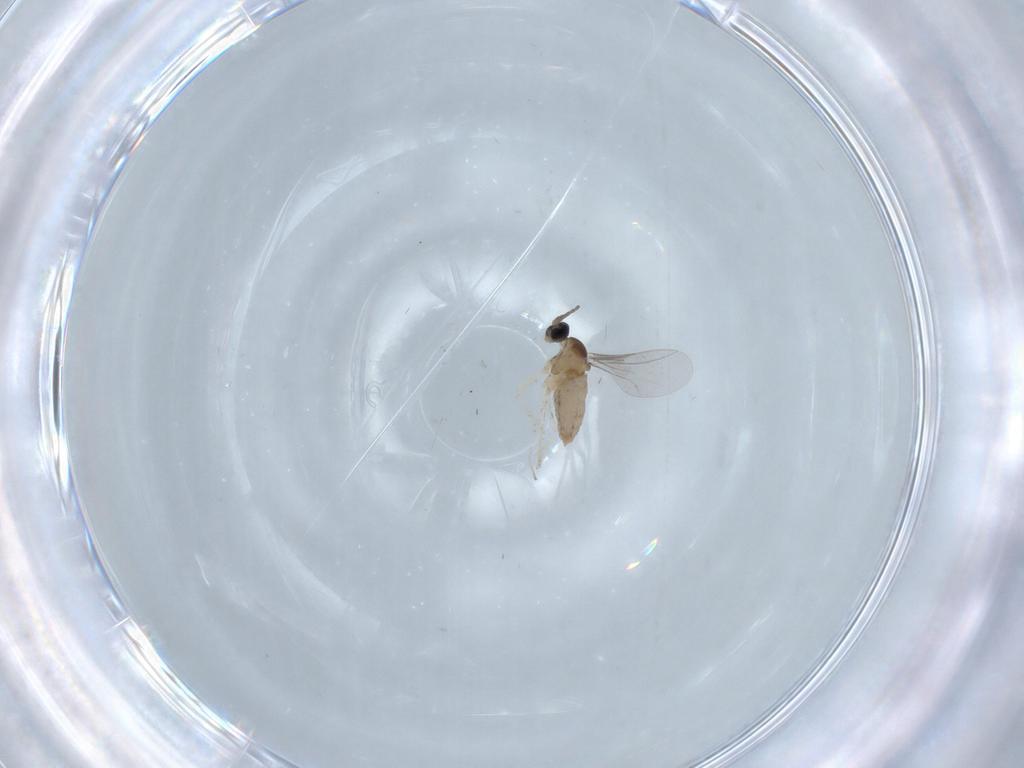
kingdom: Animalia
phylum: Arthropoda
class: Insecta
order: Diptera
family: Cecidomyiidae
